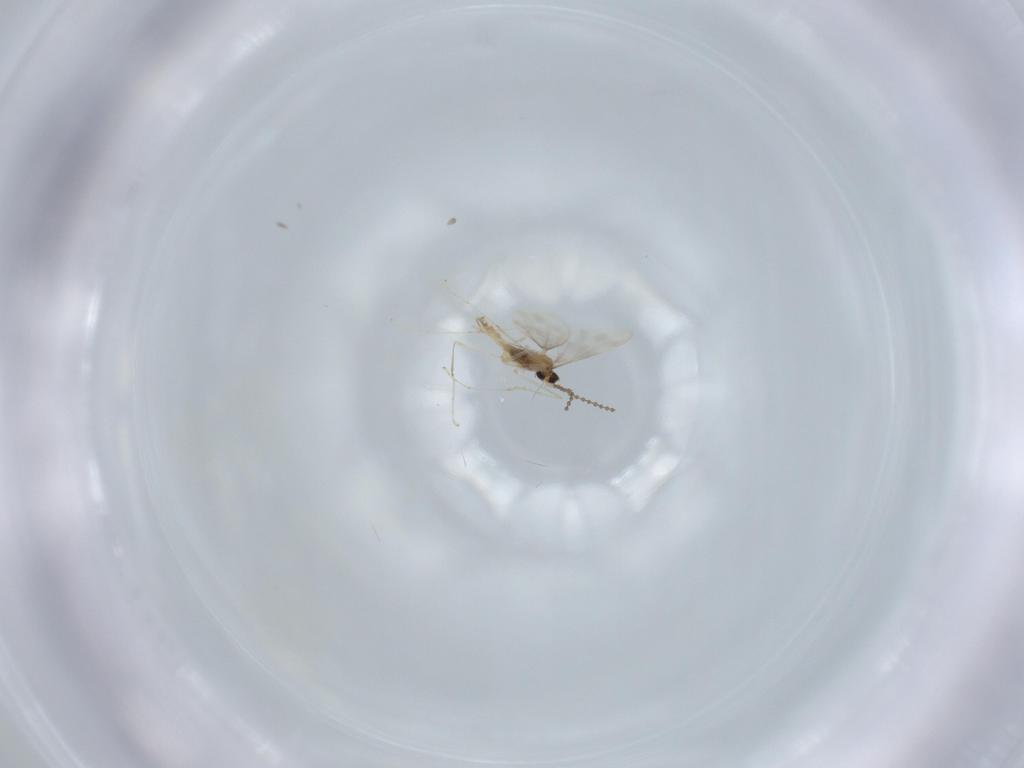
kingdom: Animalia
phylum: Arthropoda
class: Insecta
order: Diptera
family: Cecidomyiidae
